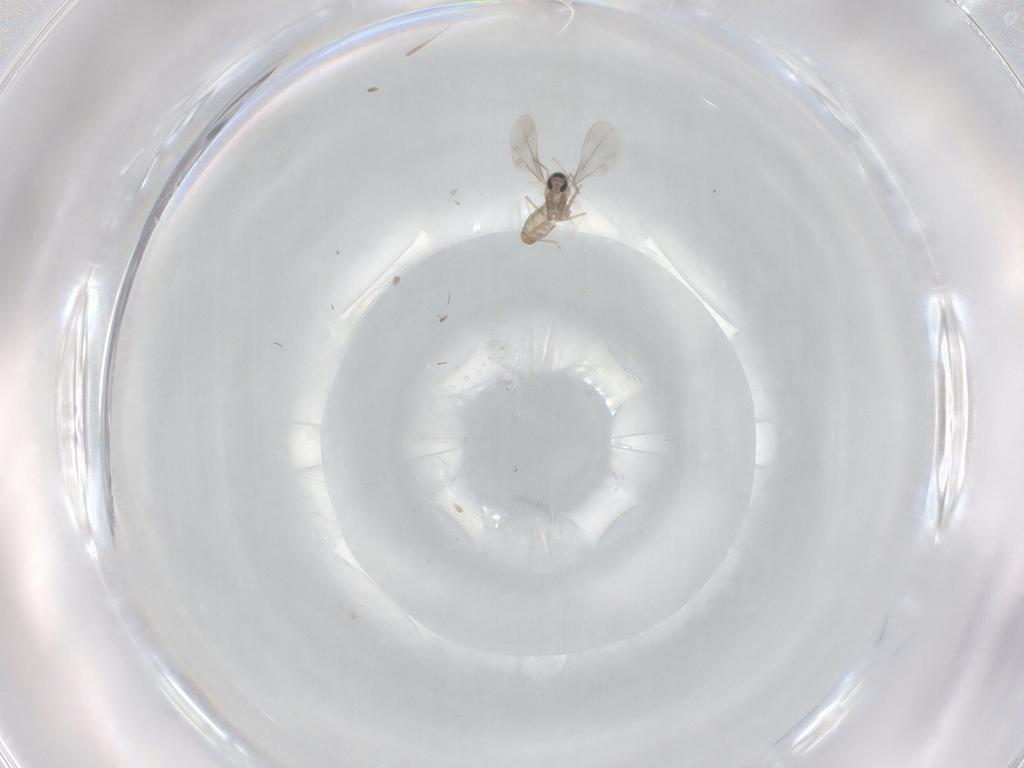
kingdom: Animalia
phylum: Arthropoda
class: Insecta
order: Diptera
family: Cecidomyiidae
